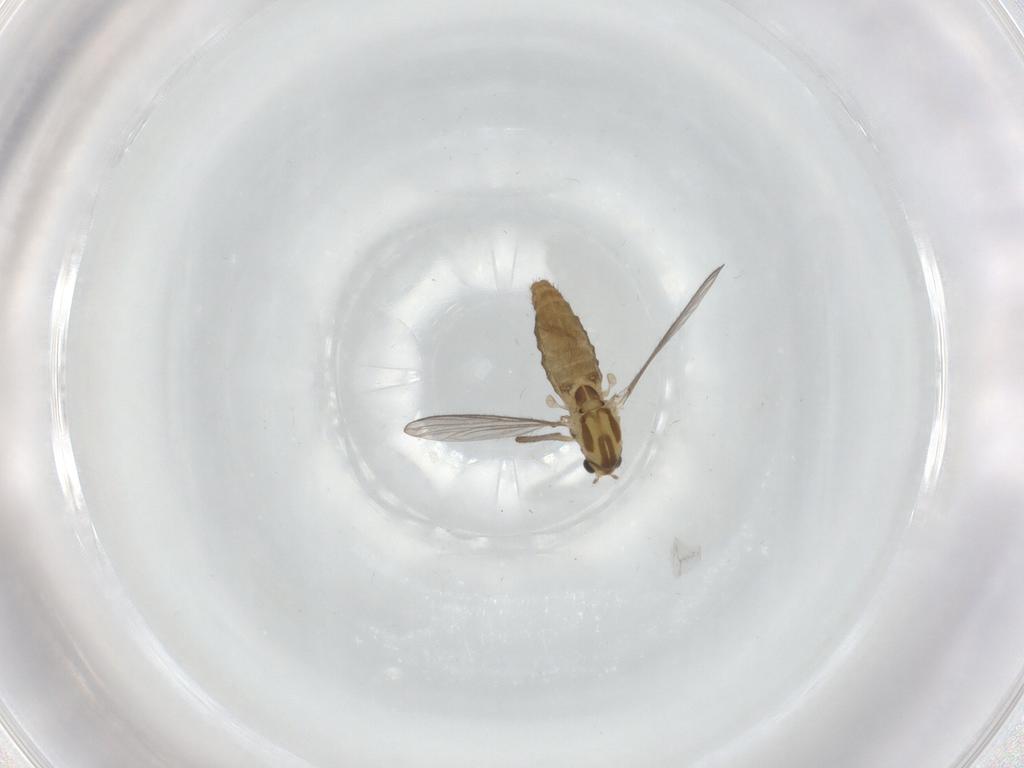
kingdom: Animalia
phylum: Arthropoda
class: Insecta
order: Diptera
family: Chironomidae
